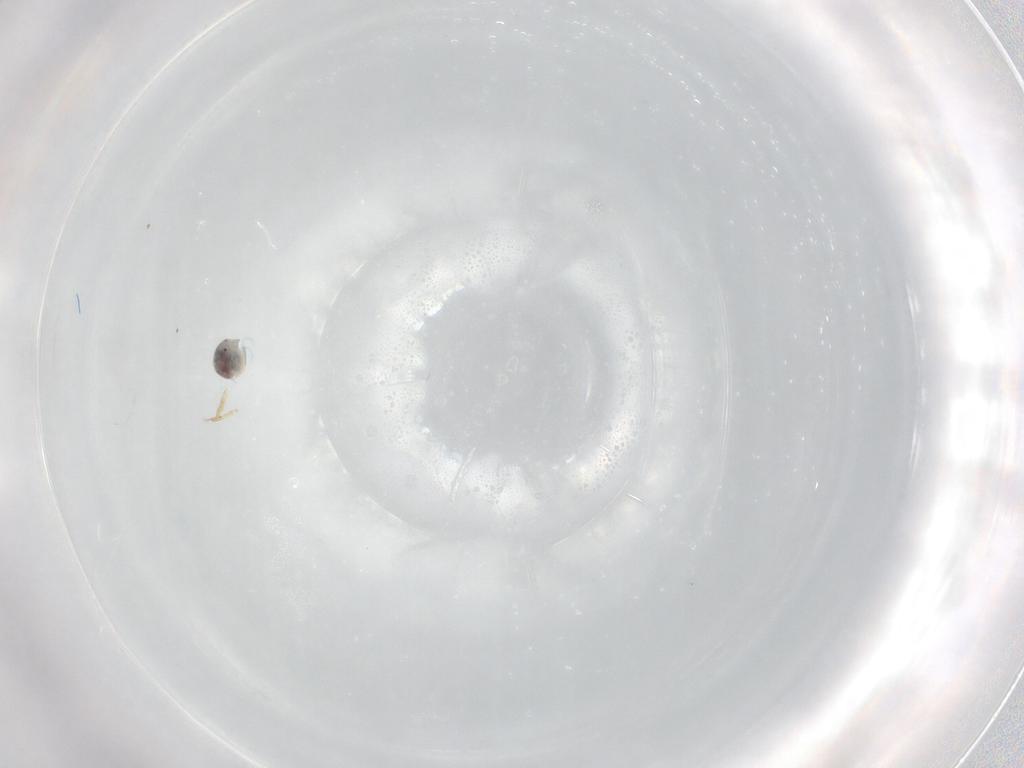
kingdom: Animalia
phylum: Arthropoda
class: Arachnida
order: Trombidiformes
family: Unionicolidae
